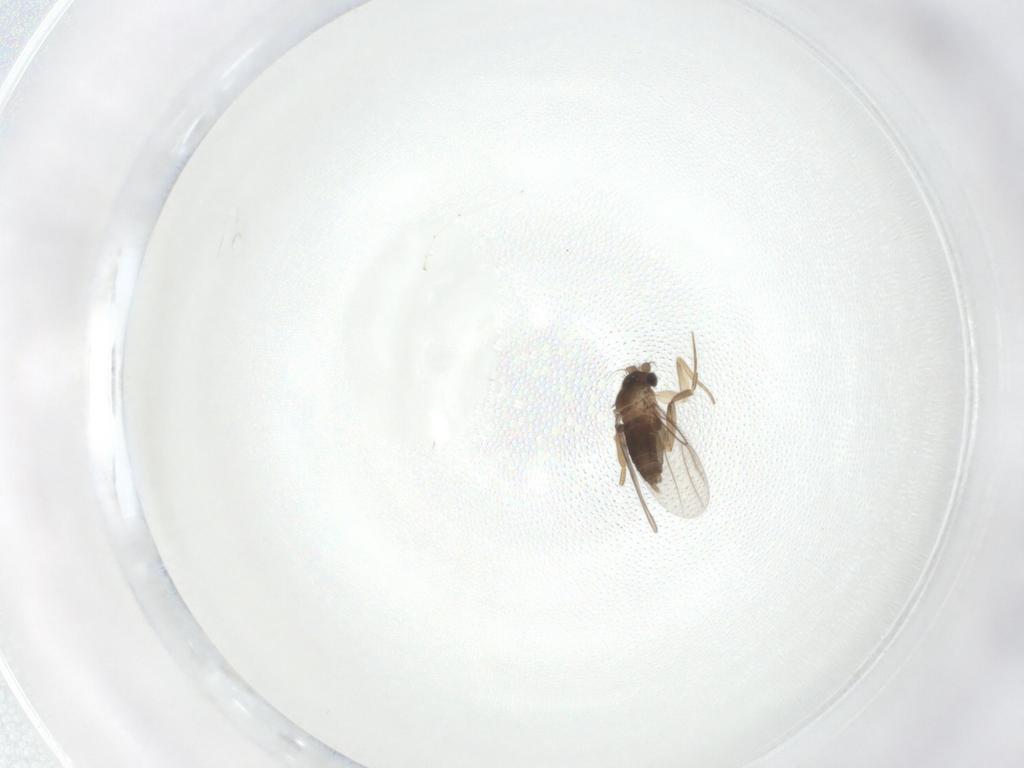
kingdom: Animalia
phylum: Arthropoda
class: Insecta
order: Diptera
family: Phoridae
